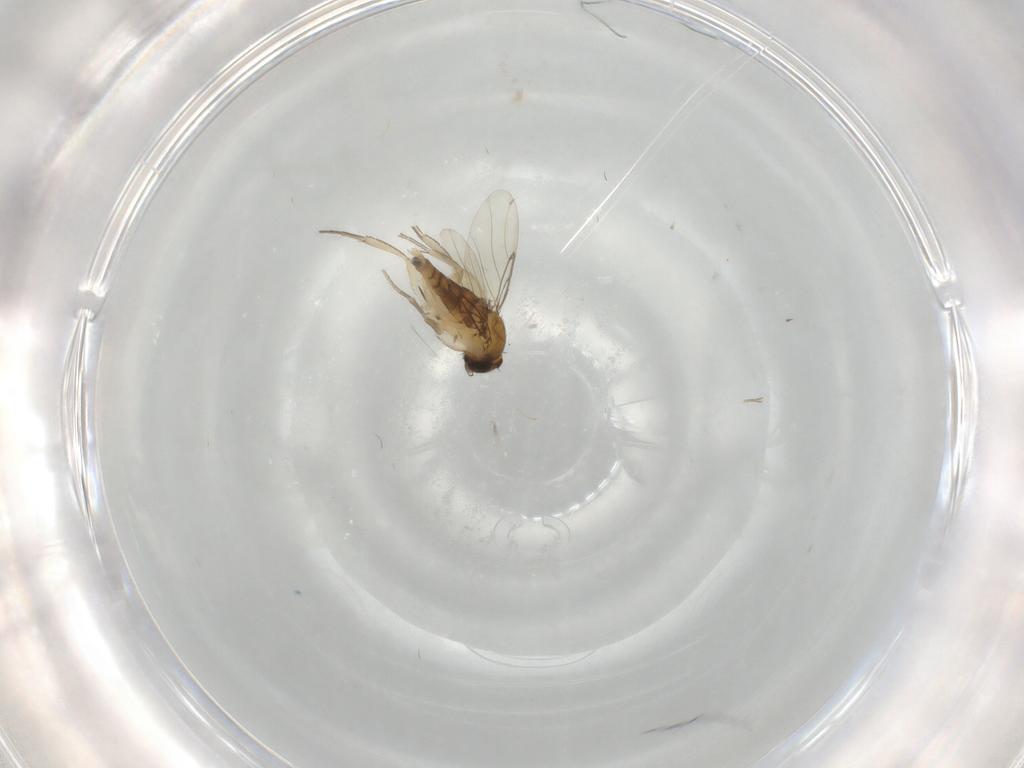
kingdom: Animalia
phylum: Arthropoda
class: Insecta
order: Diptera
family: Phoridae
